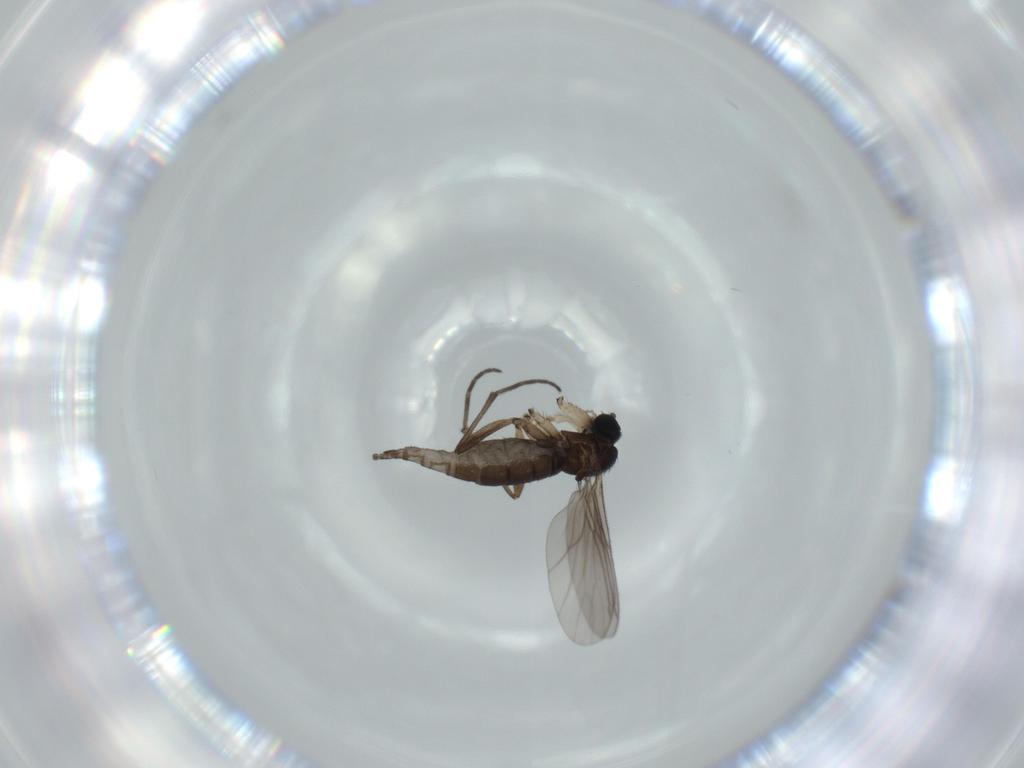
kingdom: Animalia
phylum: Arthropoda
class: Insecta
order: Diptera
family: Sciaridae
